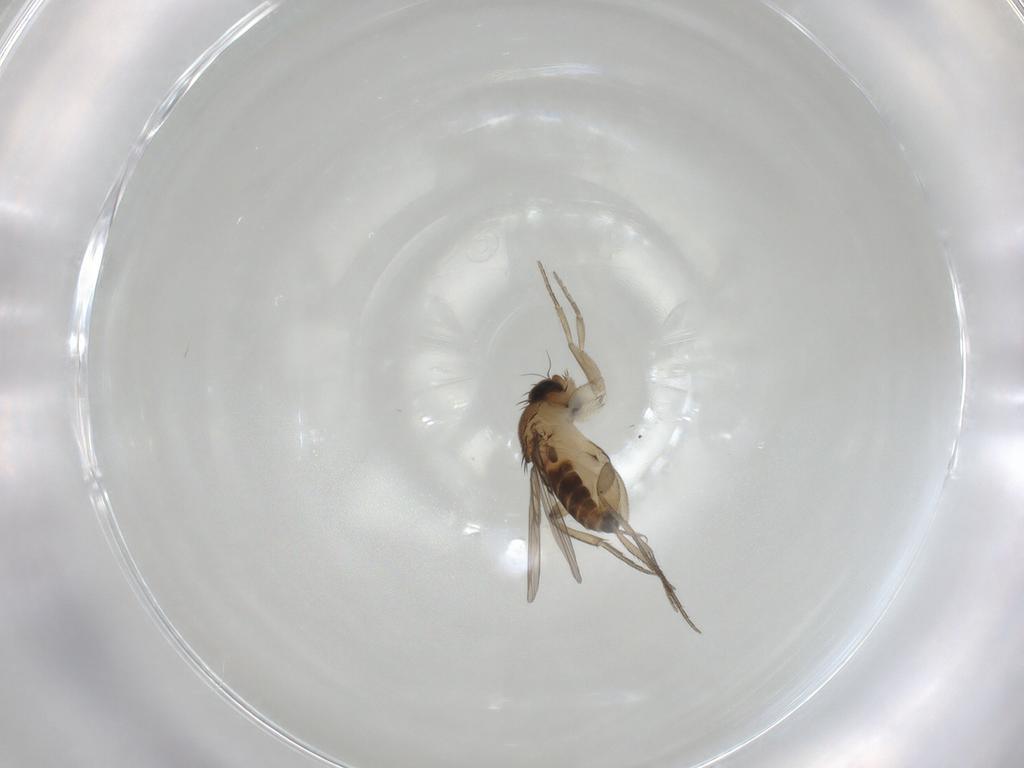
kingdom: Animalia
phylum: Arthropoda
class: Insecta
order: Diptera
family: Phoridae
